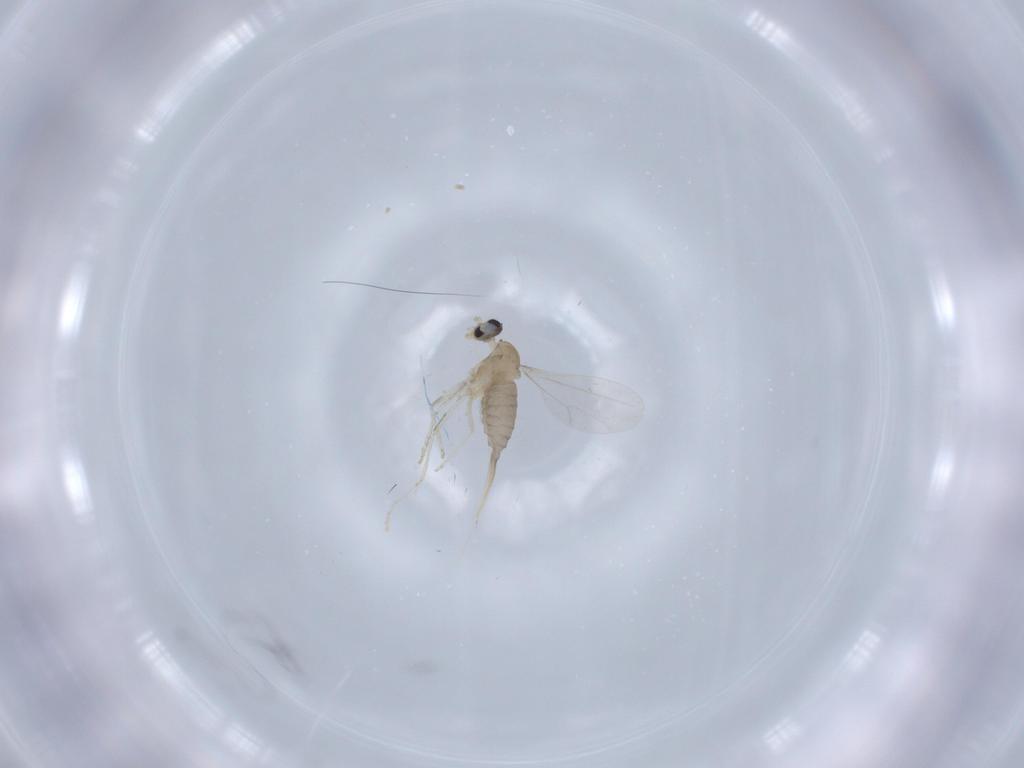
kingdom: Animalia
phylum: Arthropoda
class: Insecta
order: Diptera
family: Cecidomyiidae
